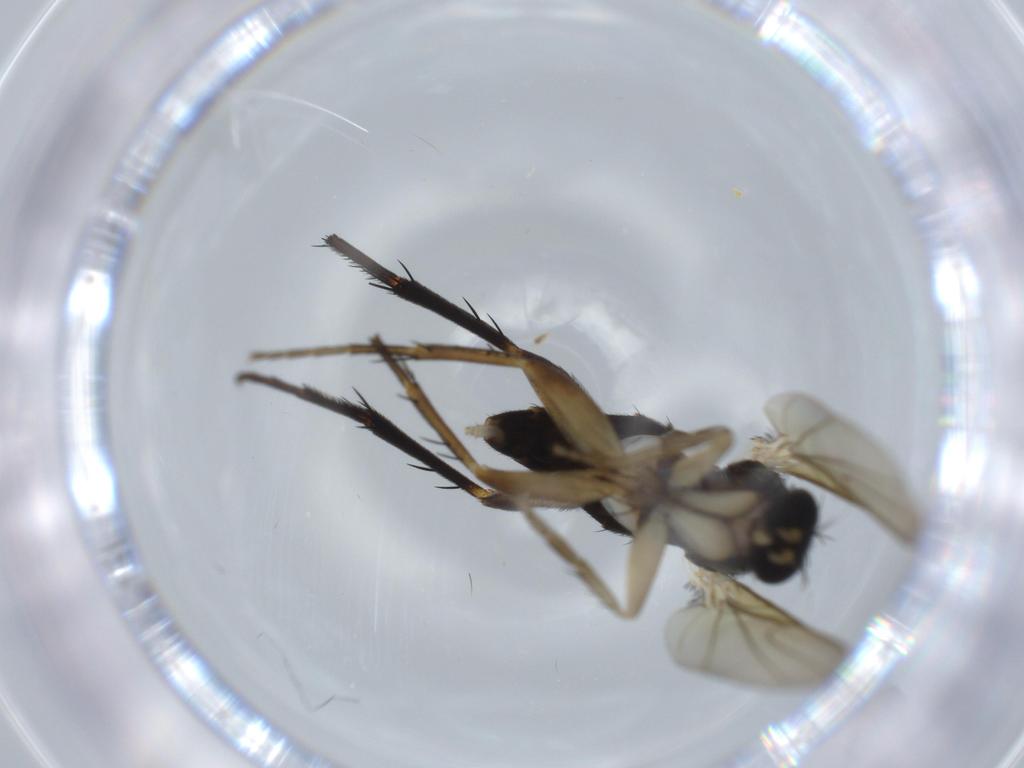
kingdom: Animalia
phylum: Arthropoda
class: Insecta
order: Diptera
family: Phoridae
